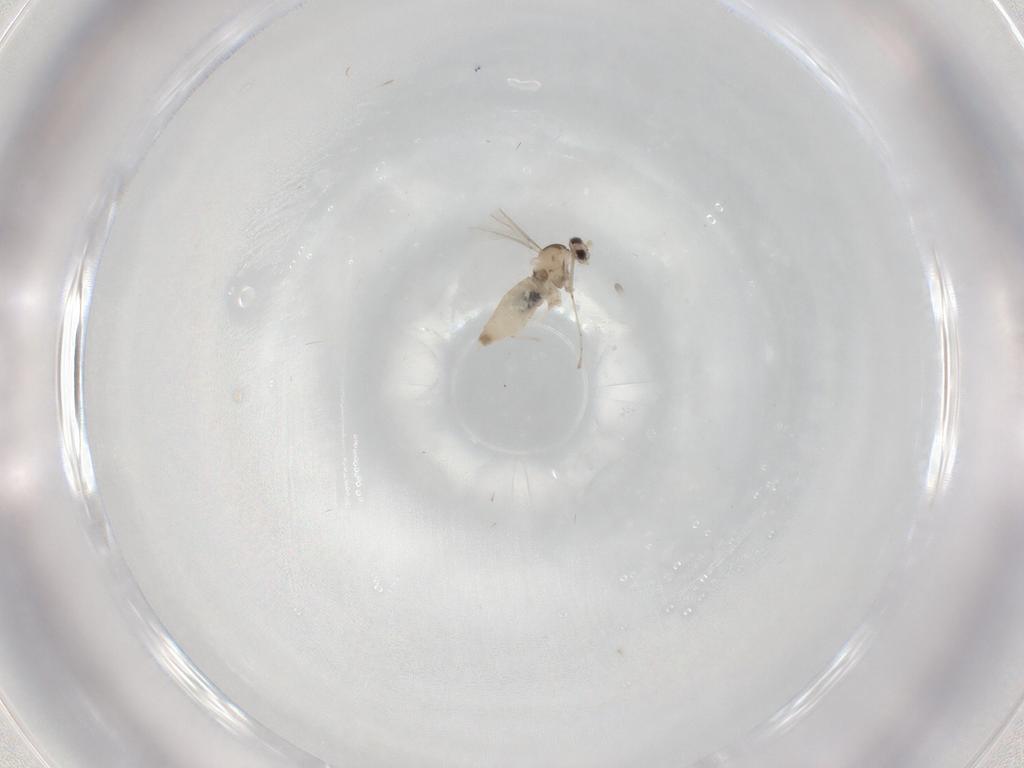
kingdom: Animalia
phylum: Arthropoda
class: Insecta
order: Diptera
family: Cecidomyiidae
